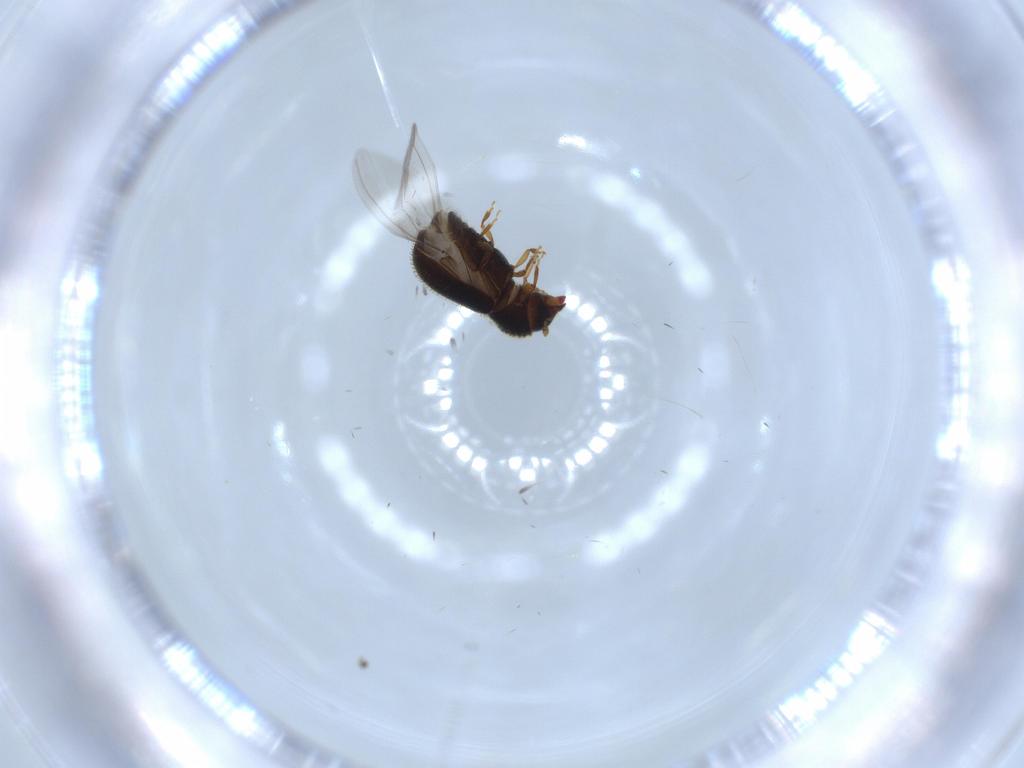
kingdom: Animalia
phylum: Arthropoda
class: Insecta
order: Coleoptera
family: Curculionidae
